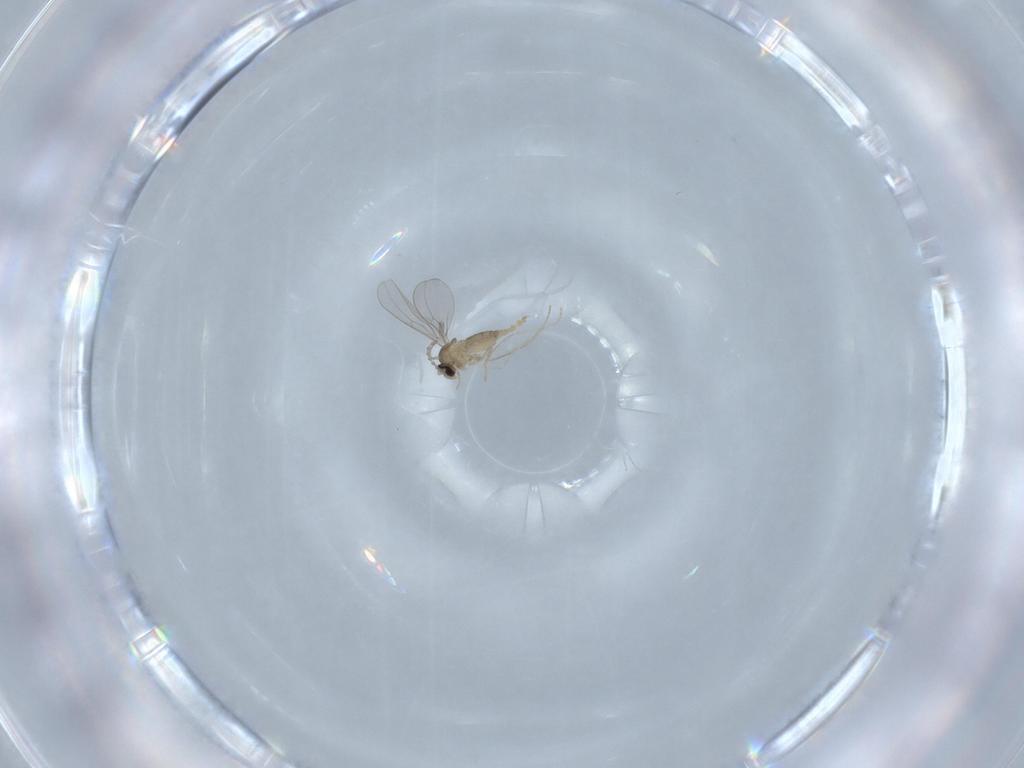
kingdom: Animalia
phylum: Arthropoda
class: Insecta
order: Diptera
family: Cecidomyiidae
